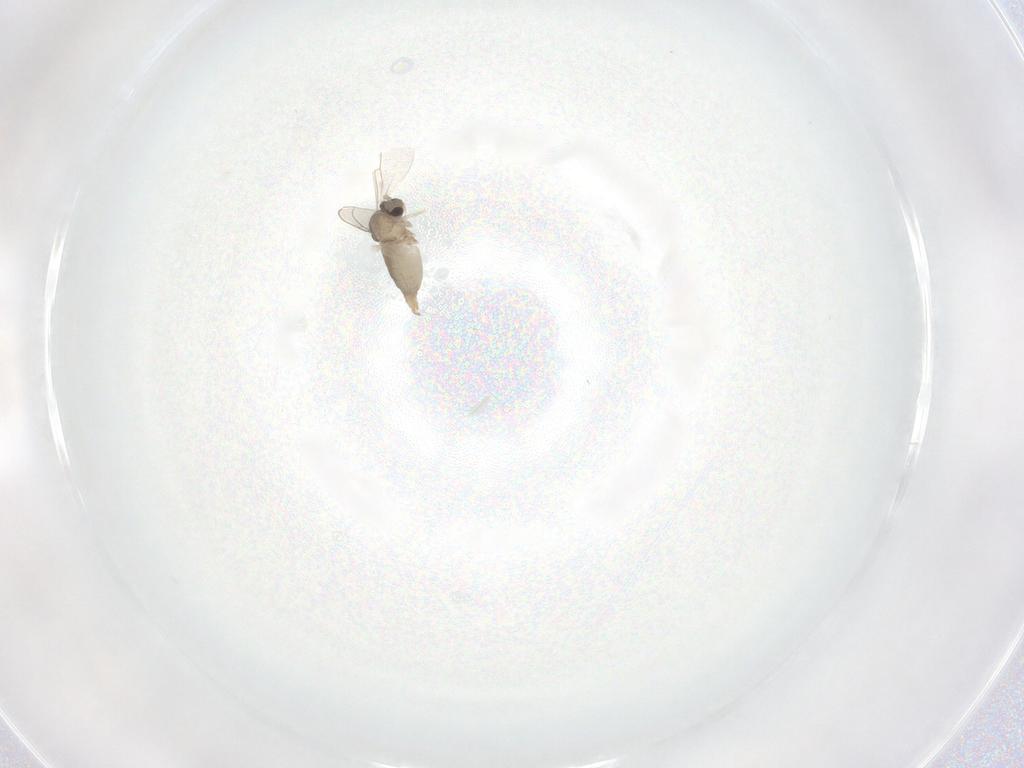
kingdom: Animalia
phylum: Arthropoda
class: Insecta
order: Diptera
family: Cecidomyiidae
